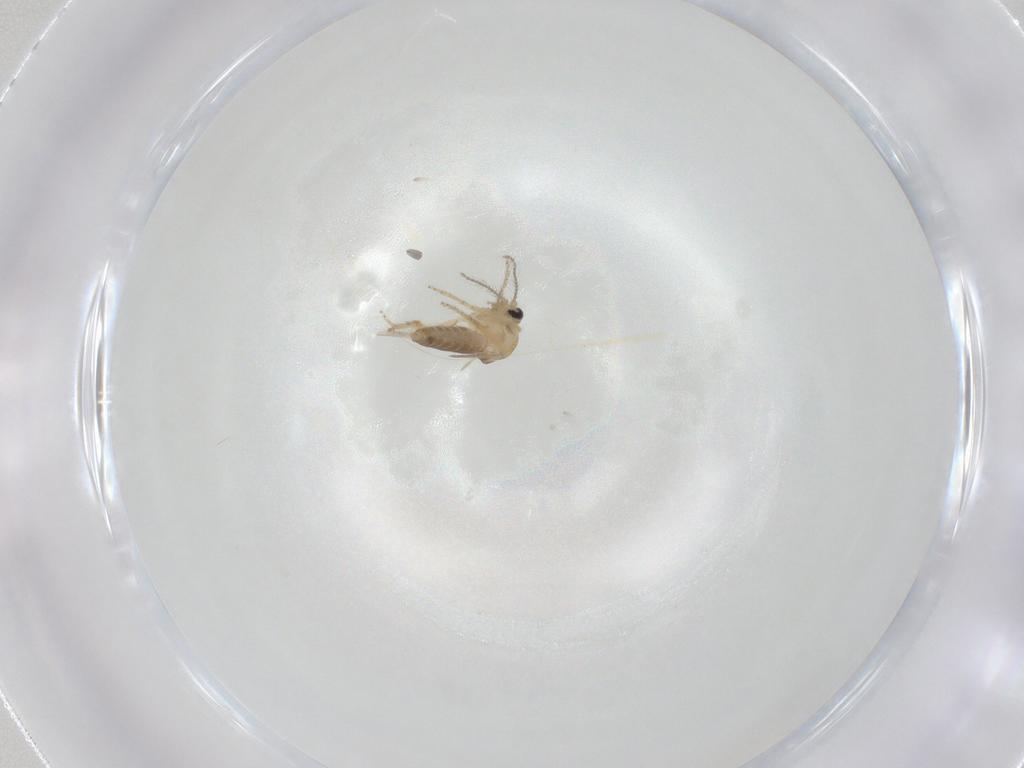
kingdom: Animalia
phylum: Arthropoda
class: Insecta
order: Diptera
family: Ceratopogonidae
